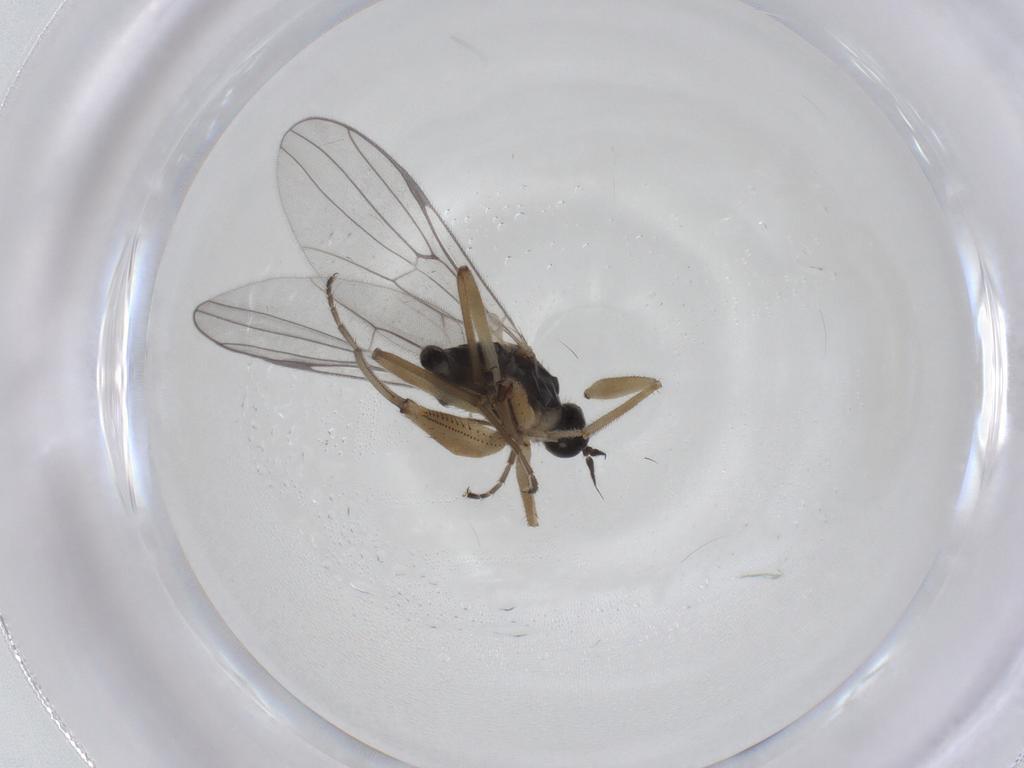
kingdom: Animalia
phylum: Arthropoda
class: Insecta
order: Diptera
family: Hybotidae
